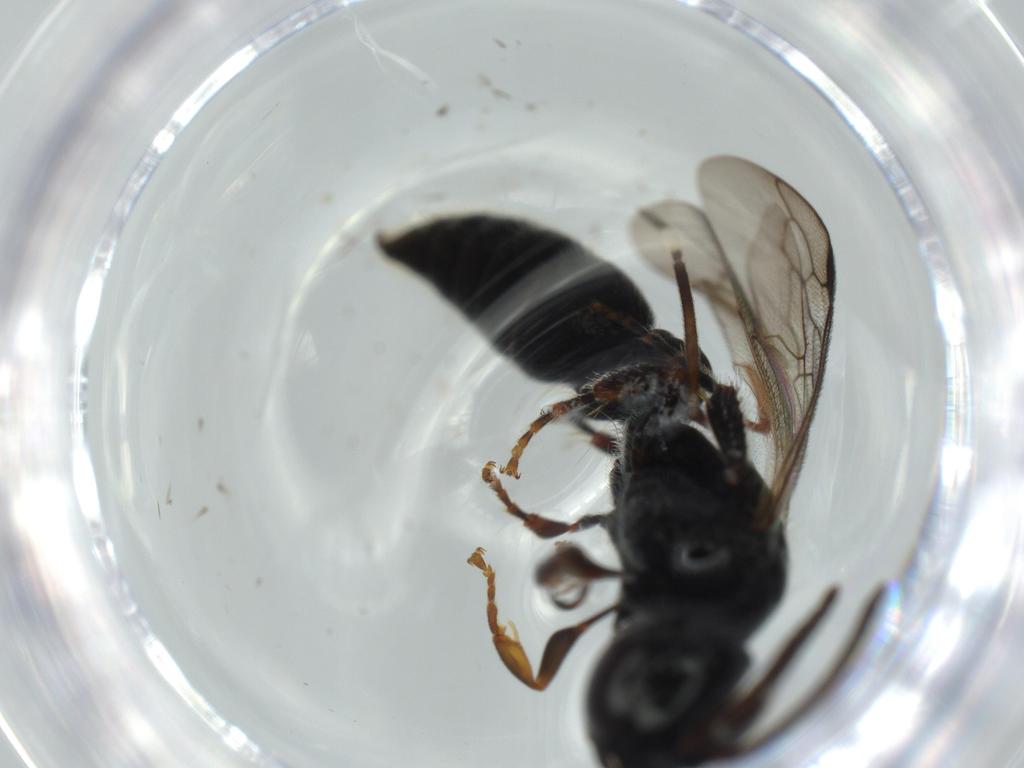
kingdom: Animalia
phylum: Arthropoda
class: Insecta
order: Hymenoptera
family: Tiphiidae
